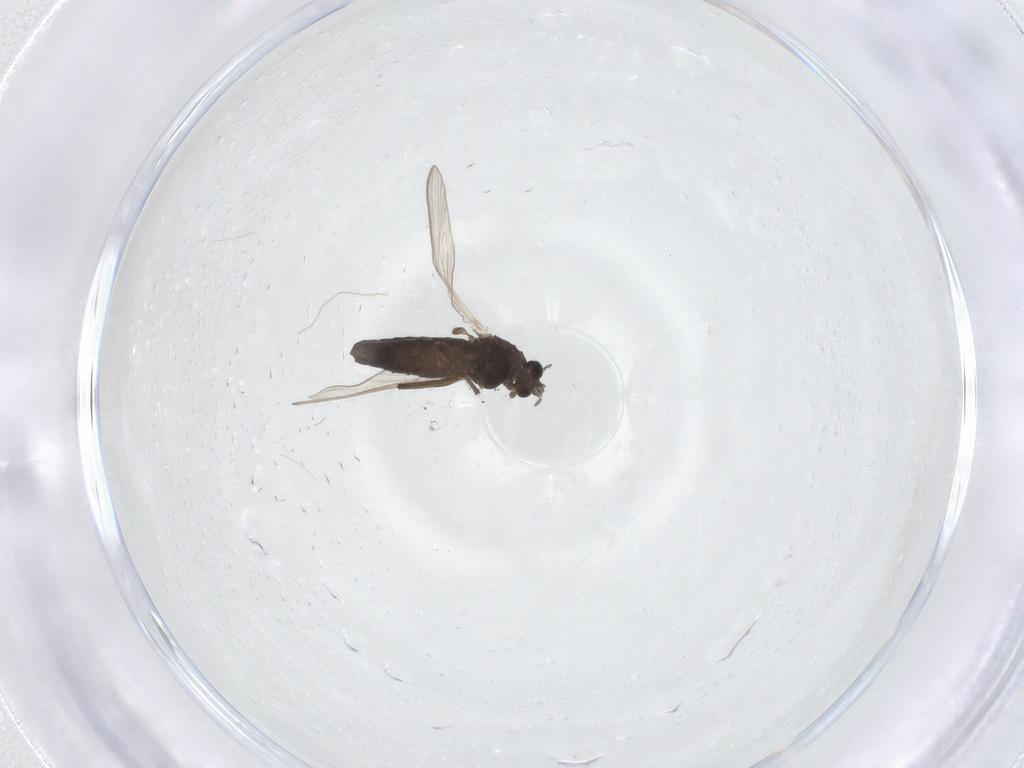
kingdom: Animalia
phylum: Arthropoda
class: Insecta
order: Diptera
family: Chironomidae
